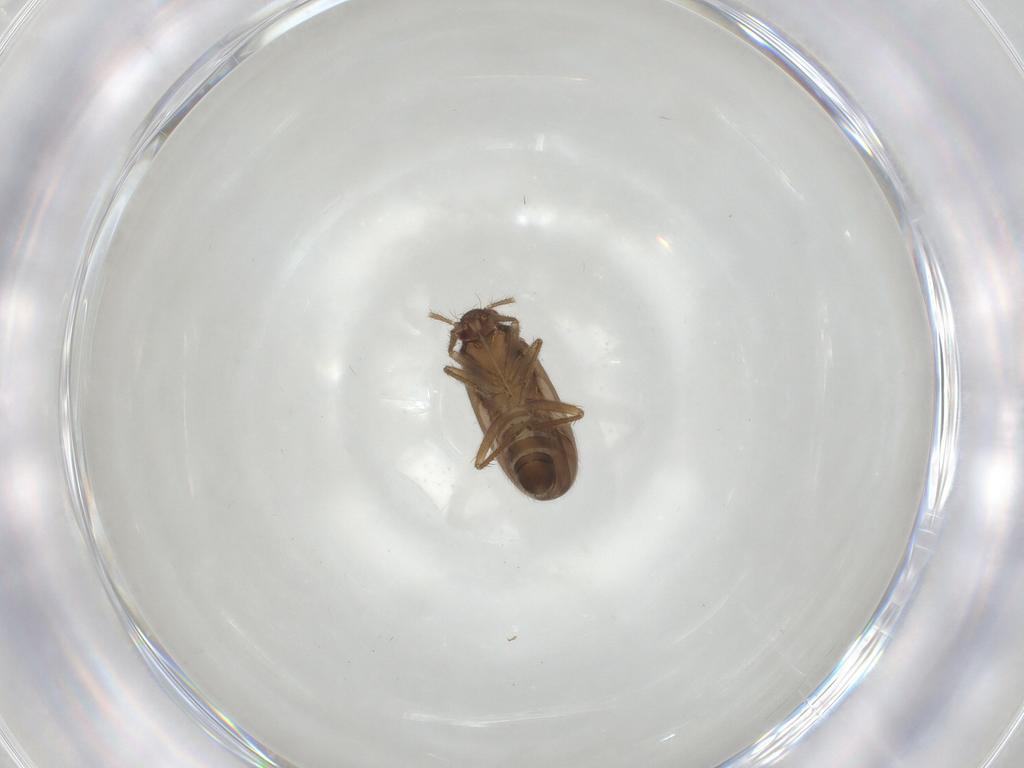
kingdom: Animalia
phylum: Arthropoda
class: Insecta
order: Hemiptera
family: Ceratocombidae
